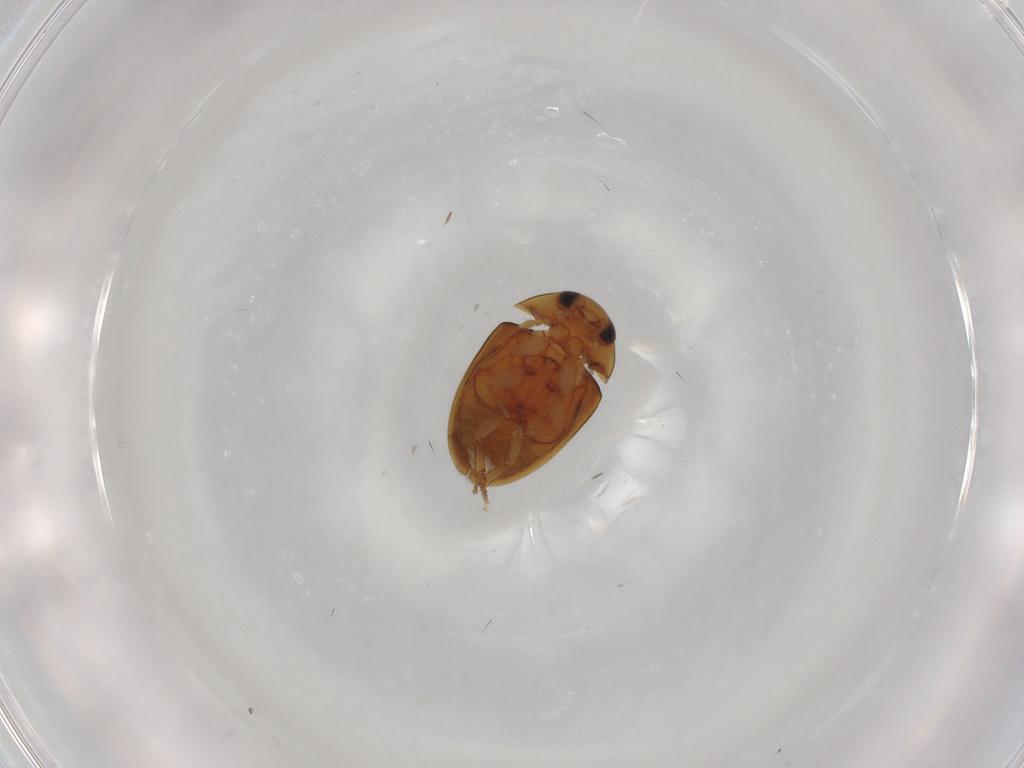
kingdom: Animalia
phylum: Arthropoda
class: Insecta
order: Coleoptera
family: Phalacridae
